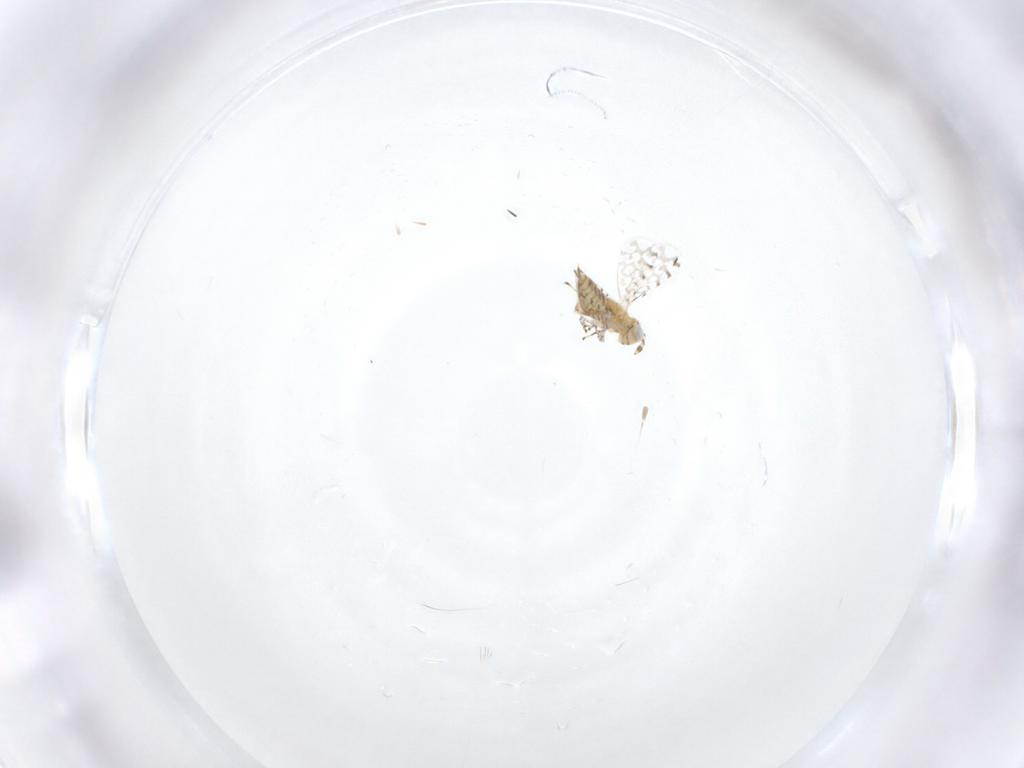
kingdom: Animalia
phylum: Arthropoda
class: Insecta
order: Hymenoptera
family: Aphelinidae
